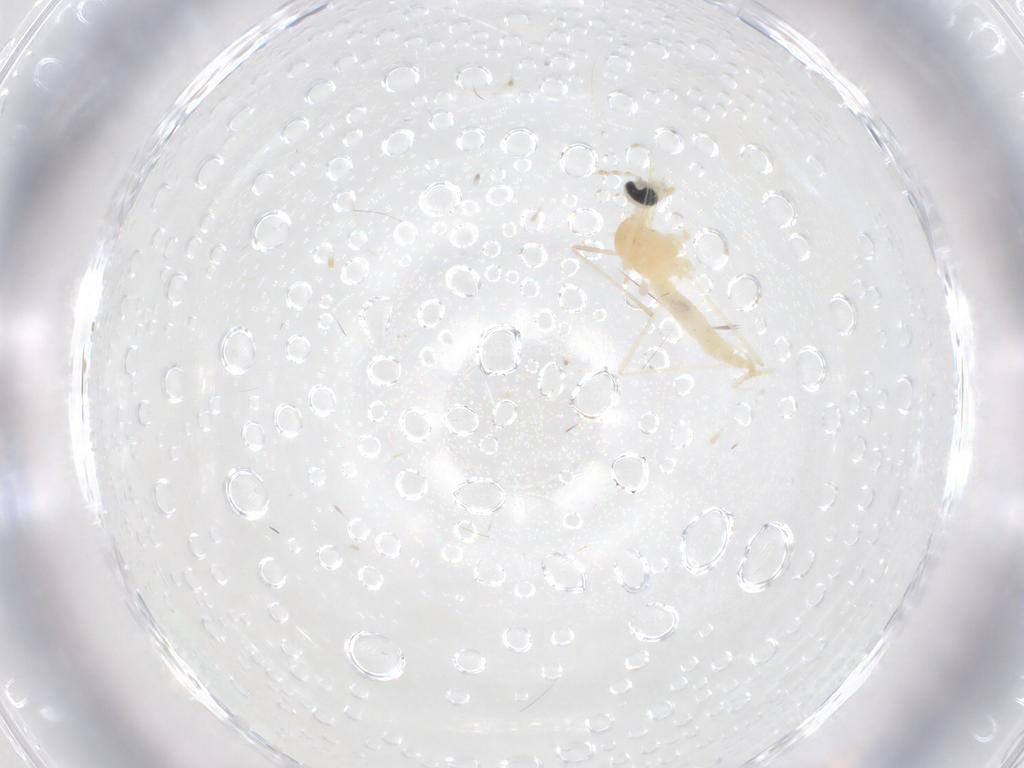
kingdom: Animalia
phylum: Arthropoda
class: Insecta
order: Diptera
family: Cecidomyiidae
